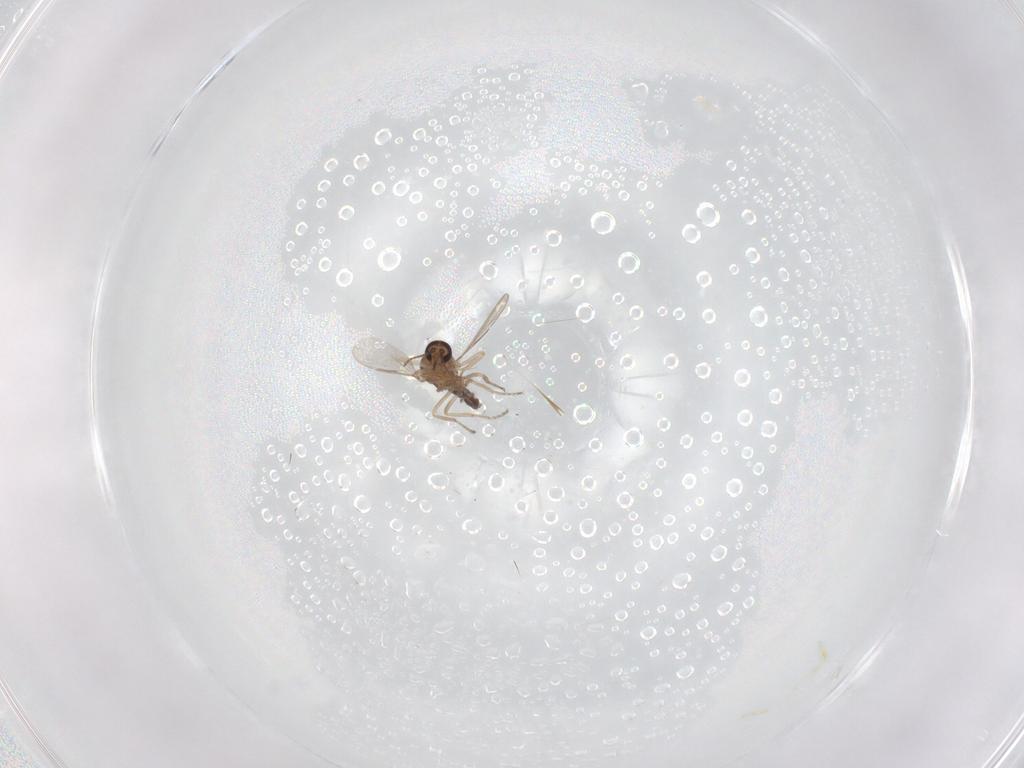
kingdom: Animalia
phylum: Arthropoda
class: Insecta
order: Diptera
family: Ceratopogonidae
